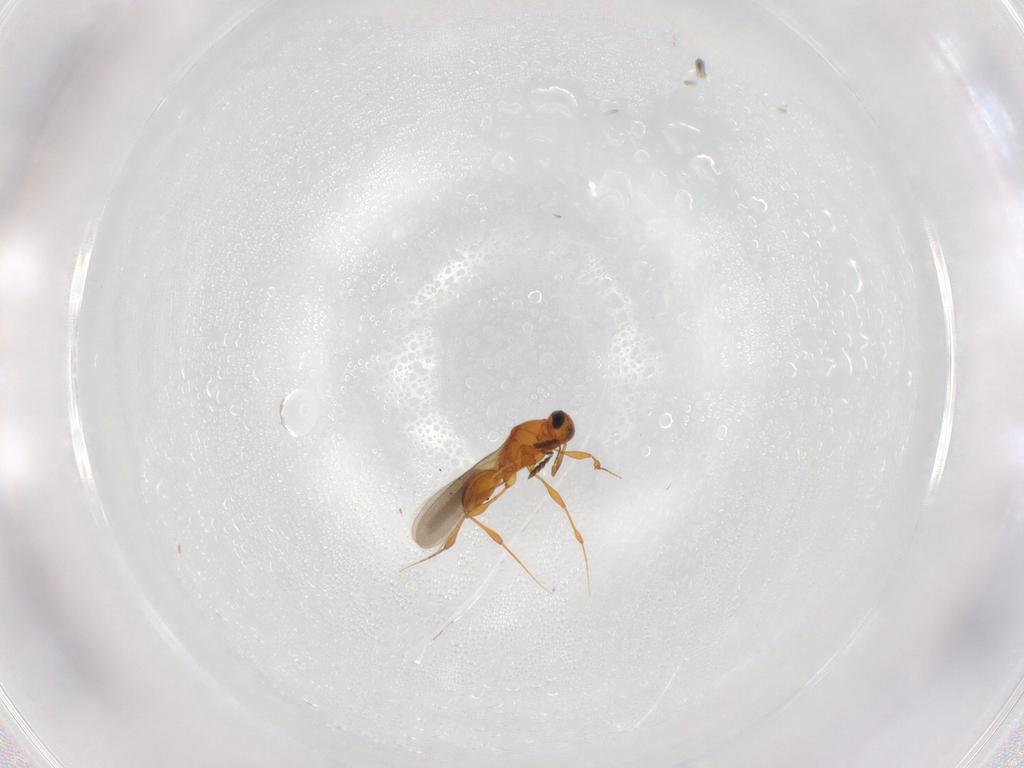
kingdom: Animalia
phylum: Arthropoda
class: Insecta
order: Hymenoptera
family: Platygastridae
